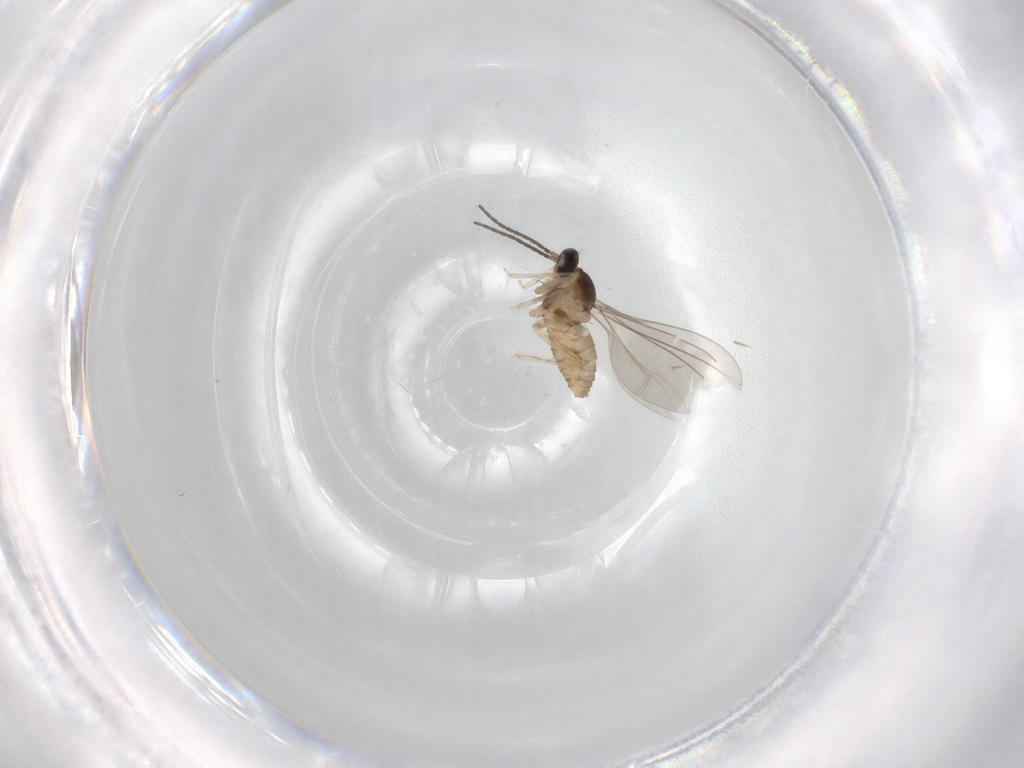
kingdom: Animalia
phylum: Arthropoda
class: Insecta
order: Diptera
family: Cecidomyiidae
